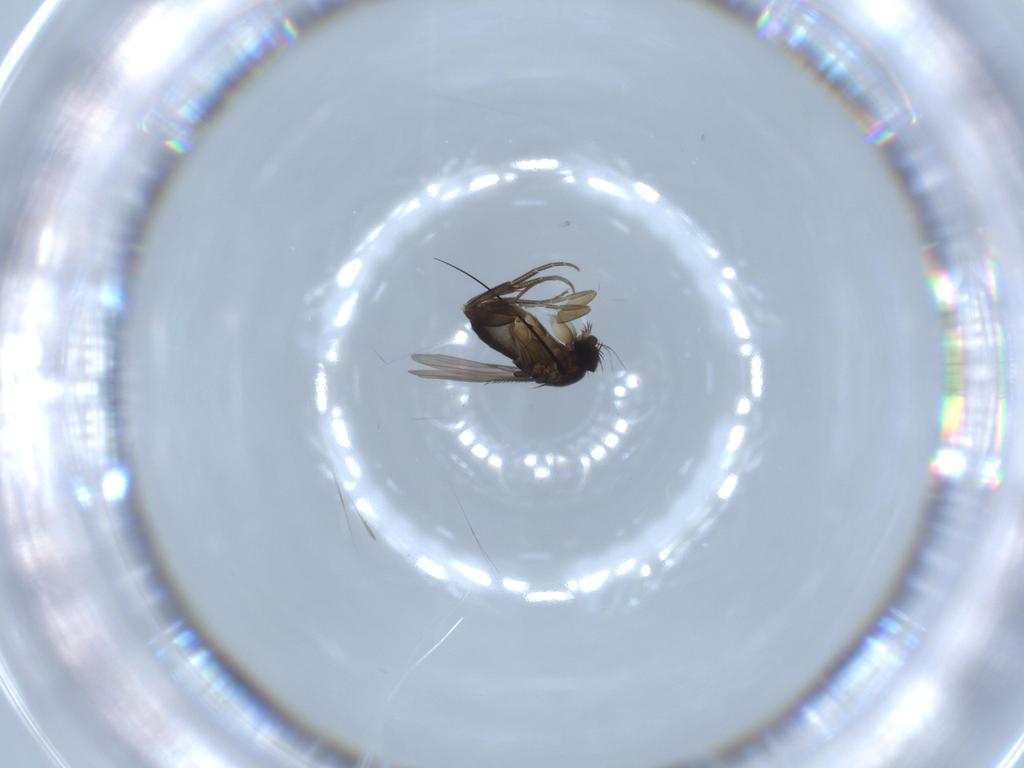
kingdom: Animalia
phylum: Arthropoda
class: Insecta
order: Diptera
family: Phoridae
